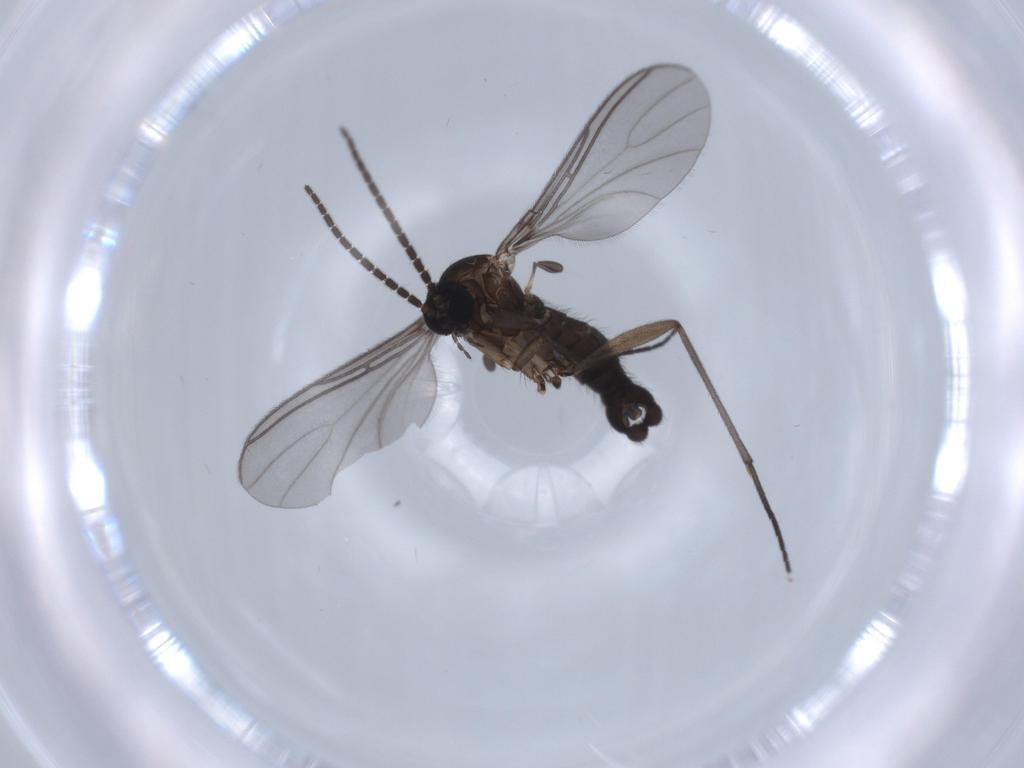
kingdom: Animalia
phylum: Arthropoda
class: Insecta
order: Diptera
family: Sciaridae
